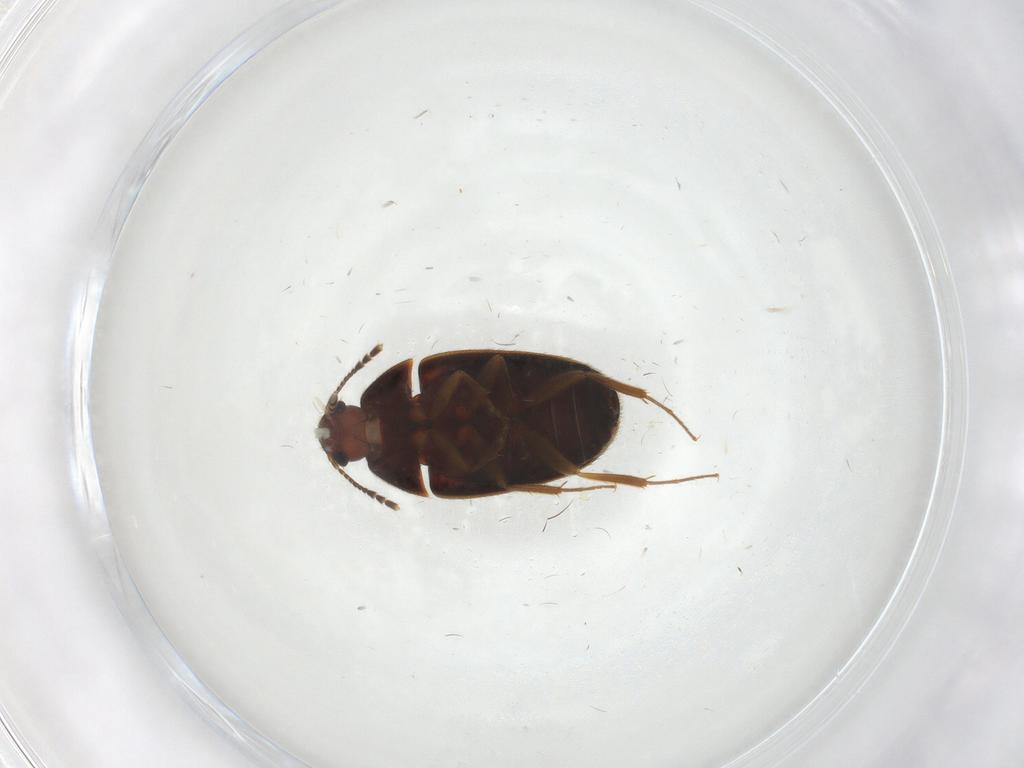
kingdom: Animalia
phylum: Arthropoda
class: Insecta
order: Coleoptera
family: Mycetophagidae
